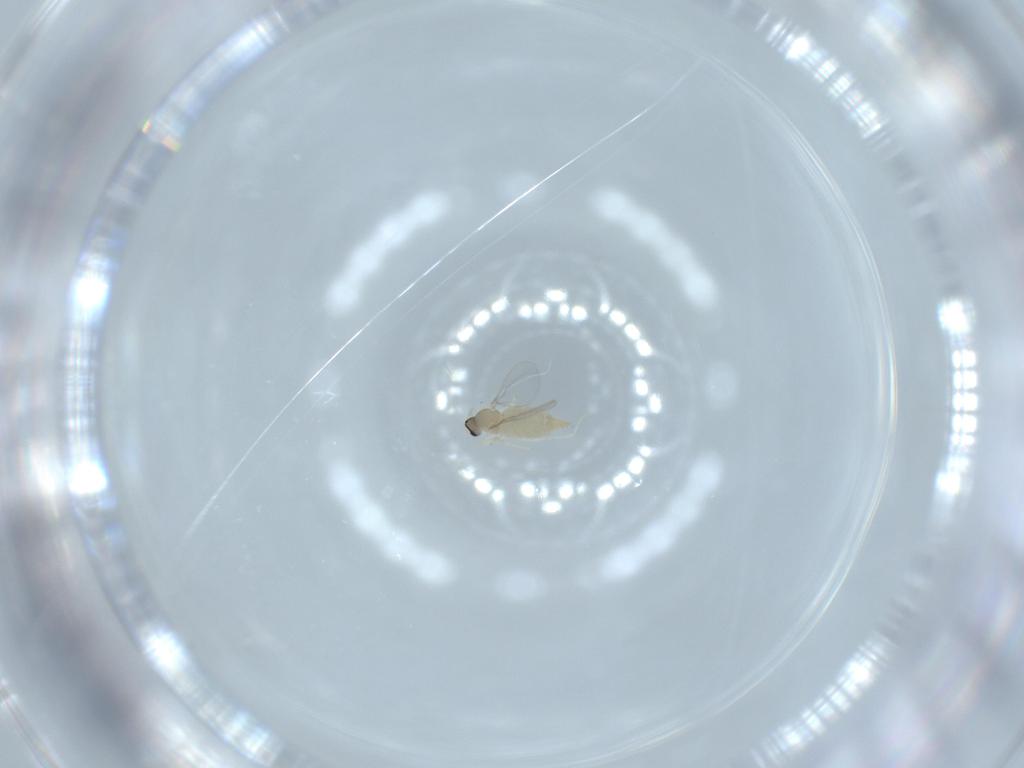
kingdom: Animalia
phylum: Arthropoda
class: Insecta
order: Diptera
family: Cecidomyiidae
